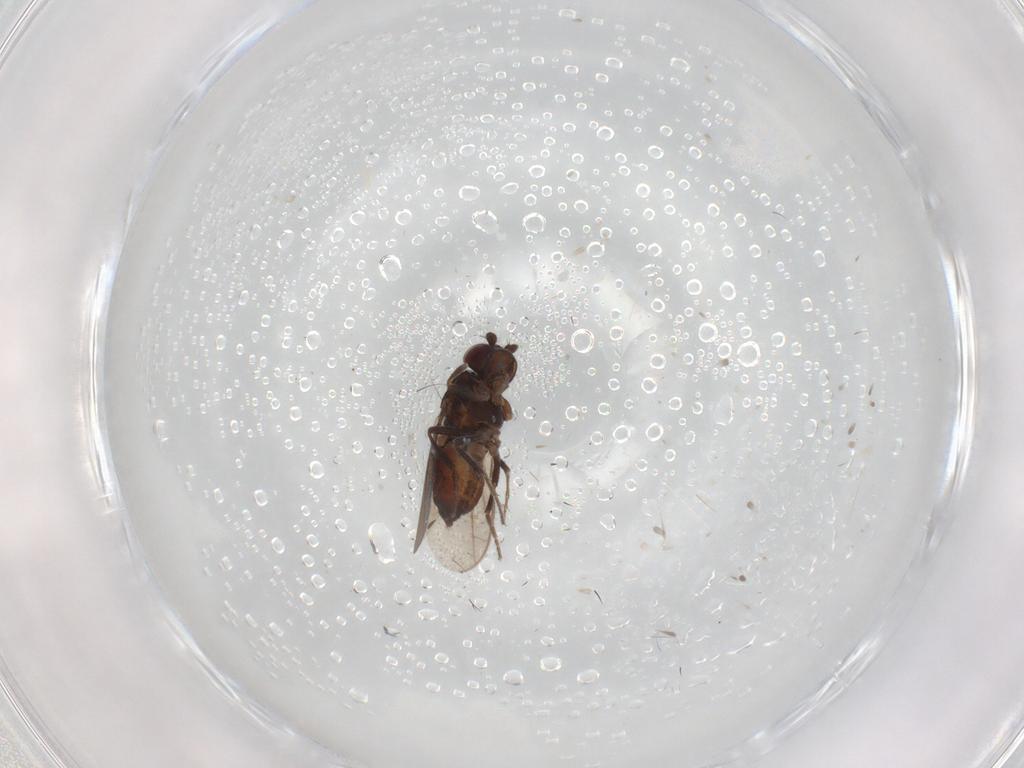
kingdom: Animalia
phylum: Arthropoda
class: Insecta
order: Diptera
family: Sphaeroceridae
